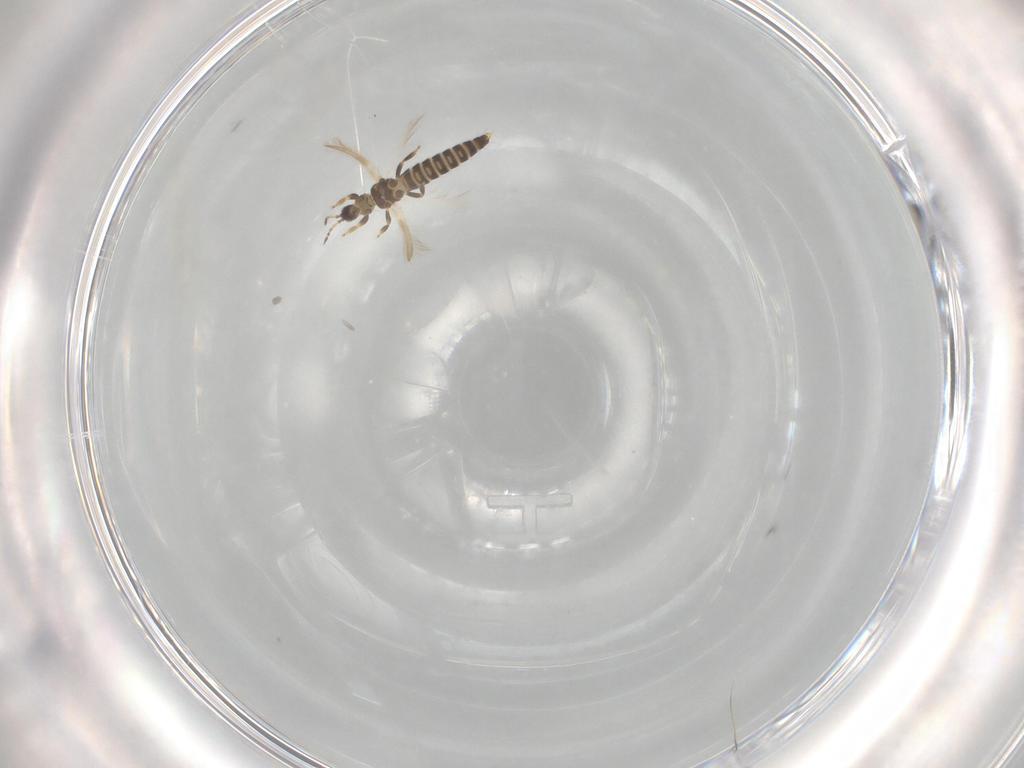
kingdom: Animalia
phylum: Arthropoda
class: Insecta
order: Thysanoptera
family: Thripidae
